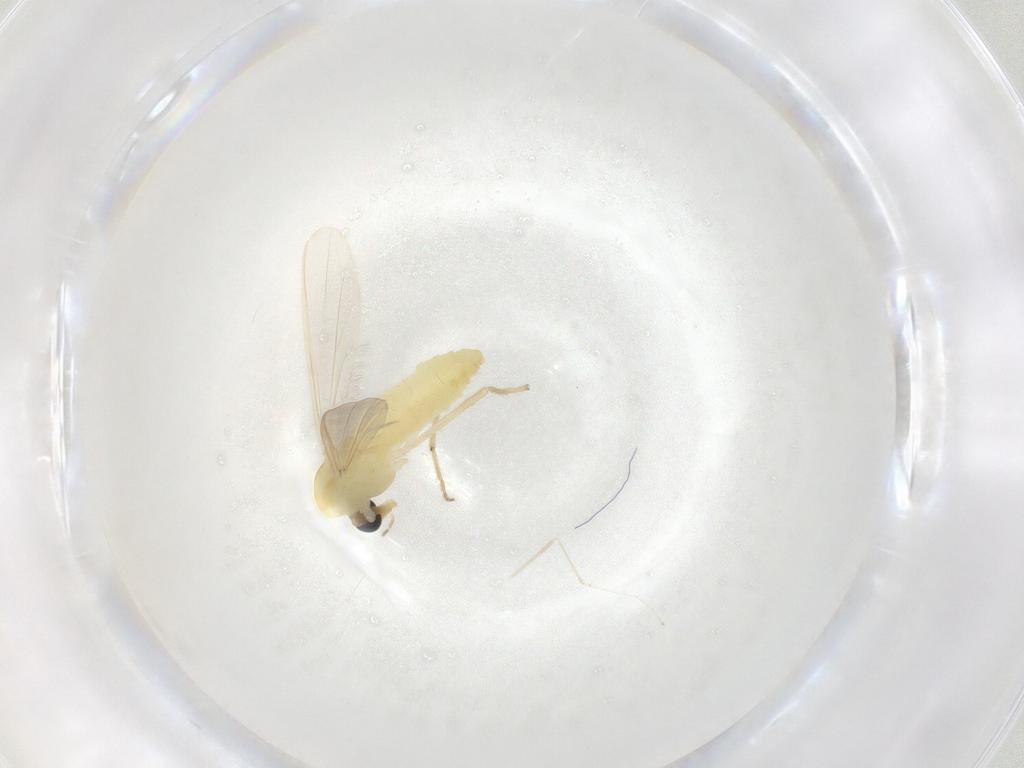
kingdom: Animalia
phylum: Arthropoda
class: Insecta
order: Diptera
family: Chironomidae
